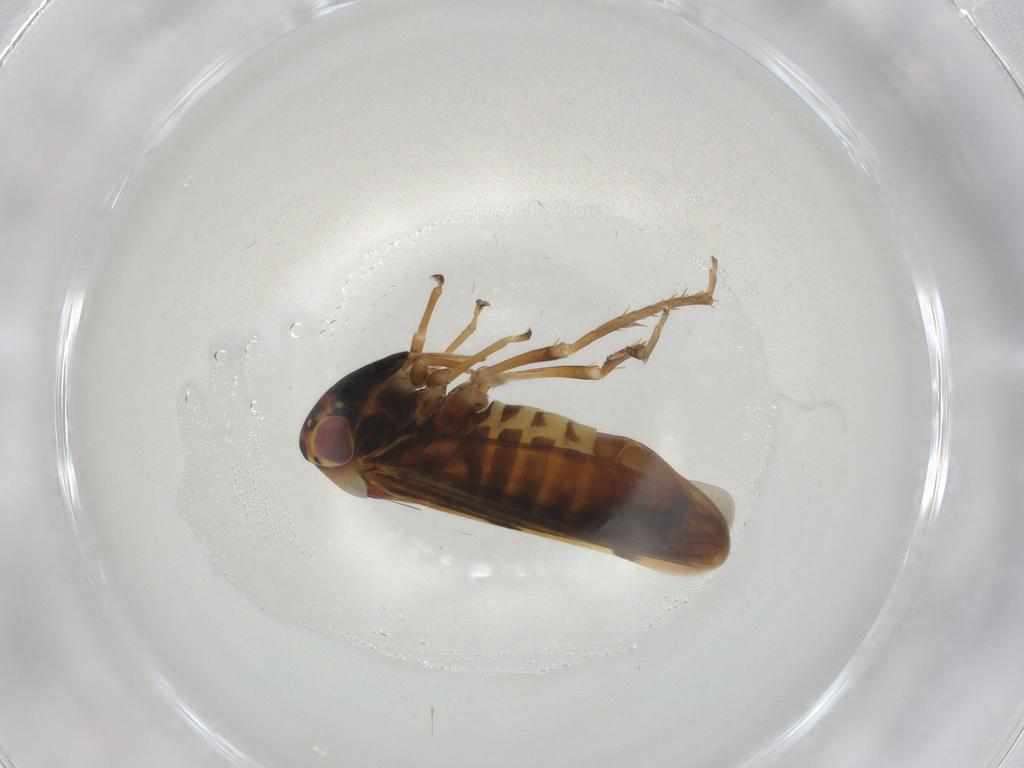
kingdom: Animalia
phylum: Arthropoda
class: Insecta
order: Hemiptera
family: Cicadellidae
